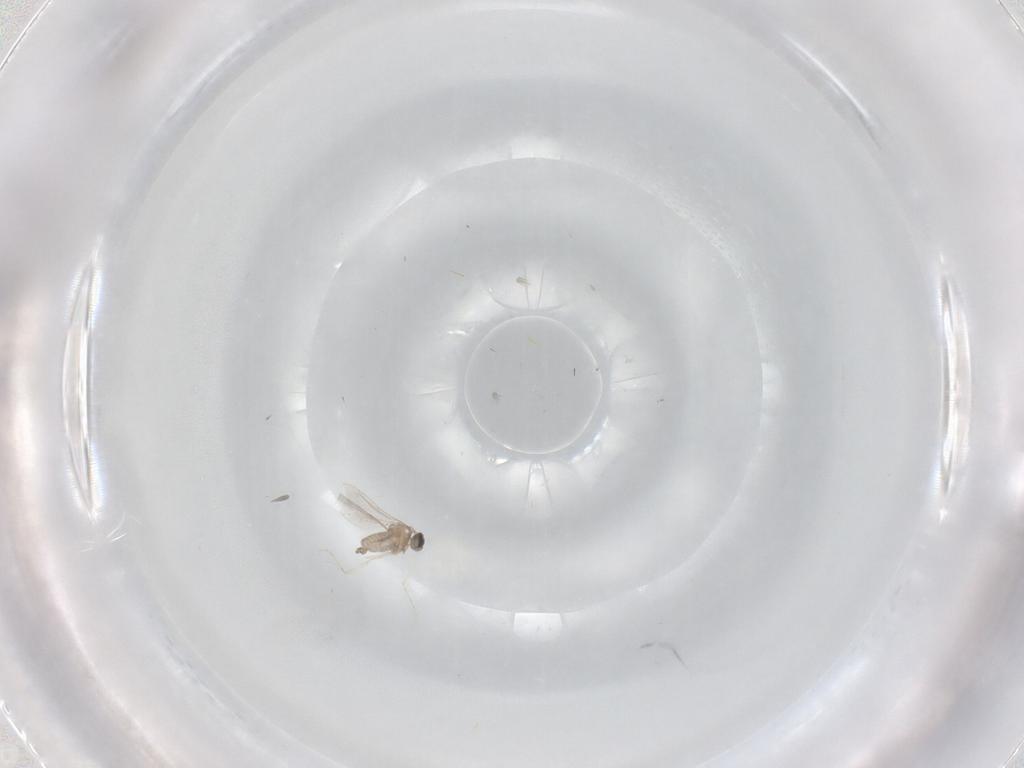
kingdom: Animalia
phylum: Arthropoda
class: Insecta
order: Diptera
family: Cecidomyiidae
